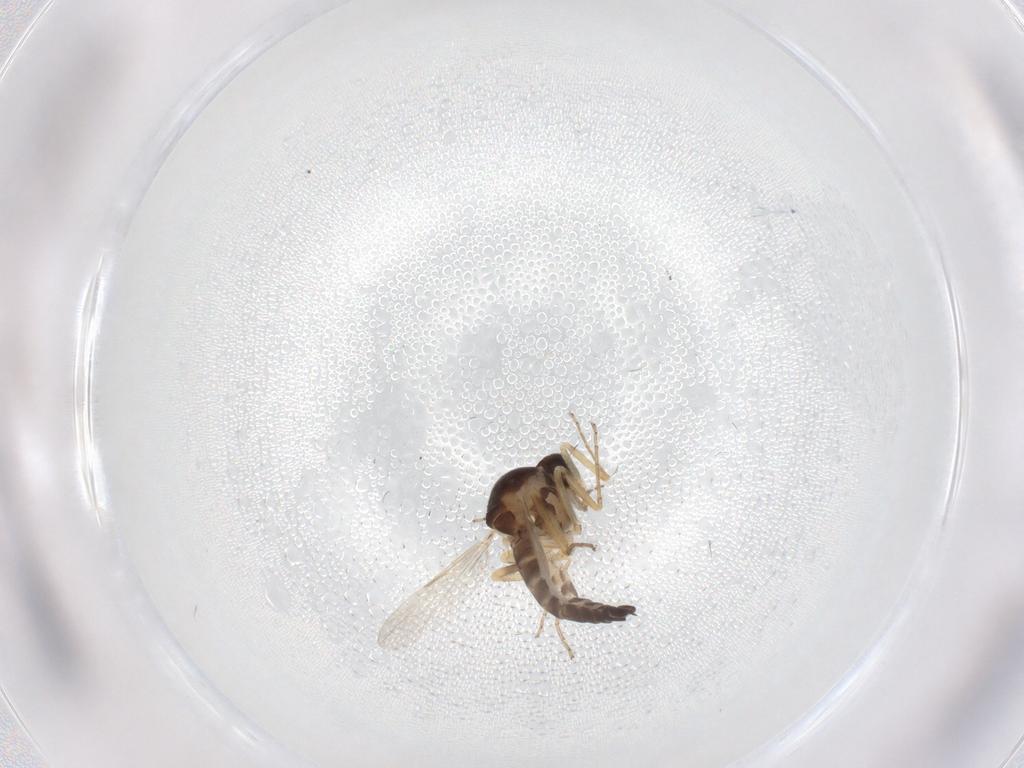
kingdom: Animalia
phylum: Arthropoda
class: Insecta
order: Diptera
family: Ceratopogonidae
